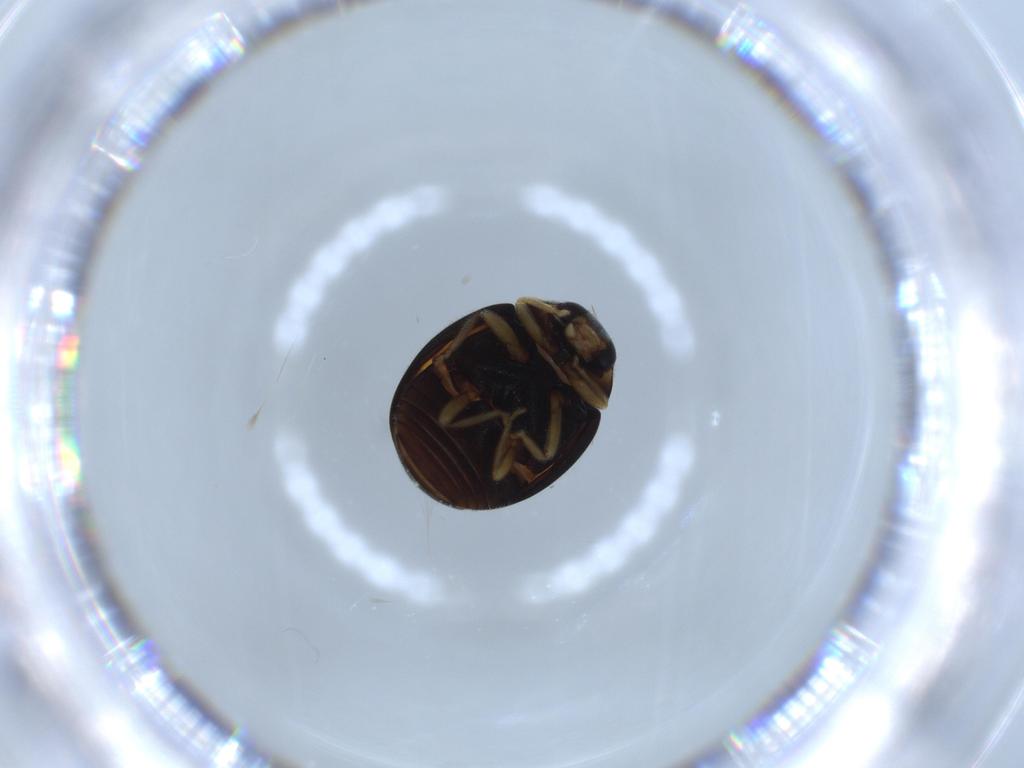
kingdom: Animalia
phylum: Arthropoda
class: Insecta
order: Coleoptera
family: Coccinellidae
